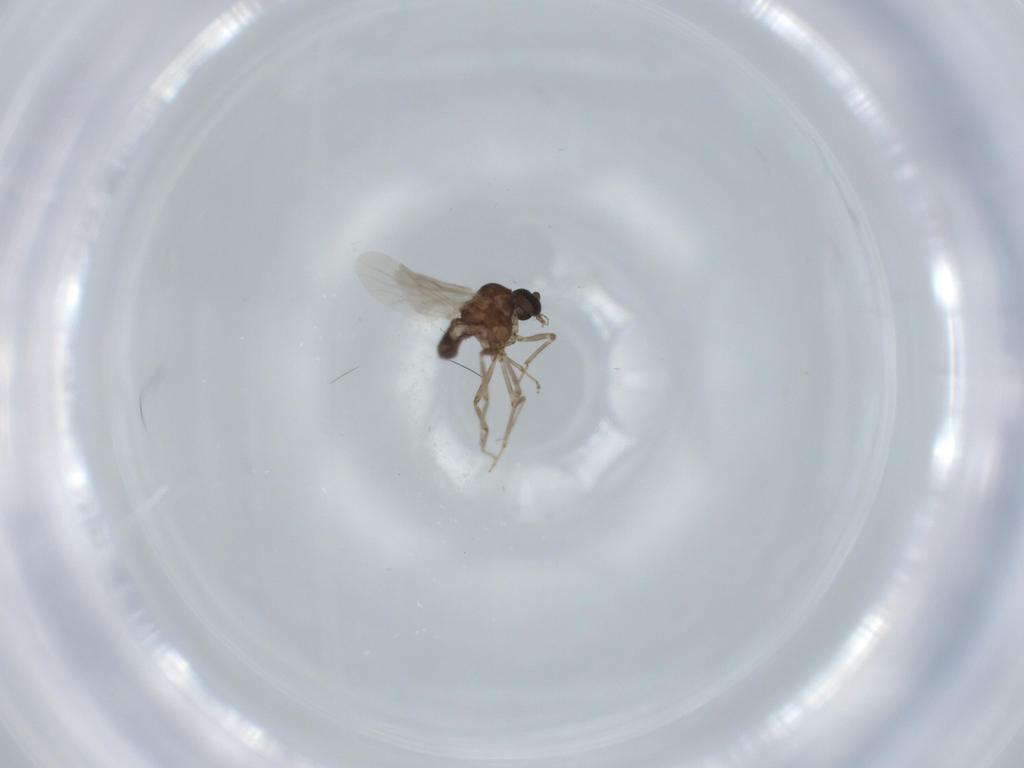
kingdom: Animalia
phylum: Arthropoda
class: Insecta
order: Diptera
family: Ceratopogonidae
